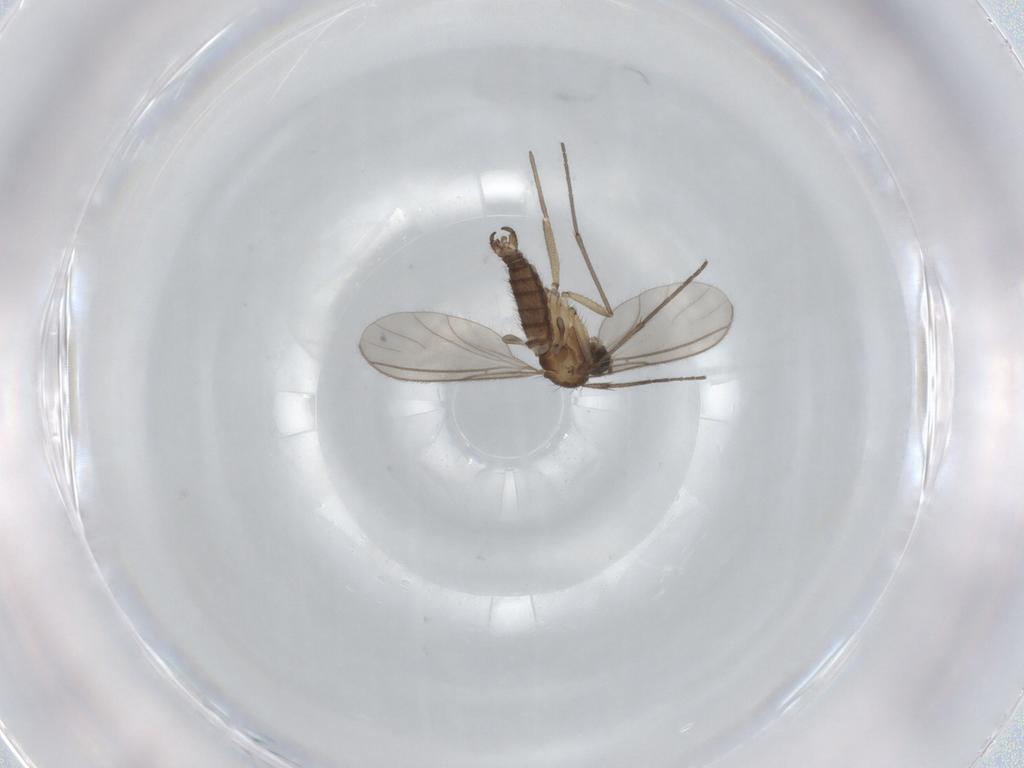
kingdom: Animalia
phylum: Arthropoda
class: Insecta
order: Diptera
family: Sciaridae
